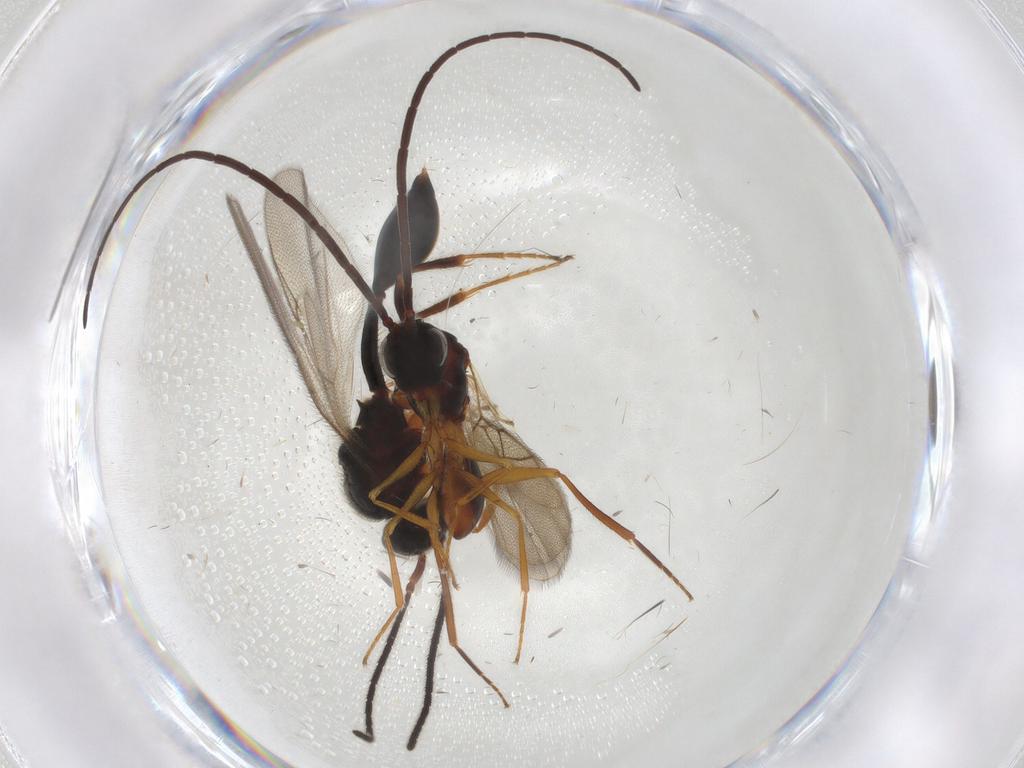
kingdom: Animalia
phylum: Arthropoda
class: Insecta
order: Hymenoptera
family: Diapriidae
